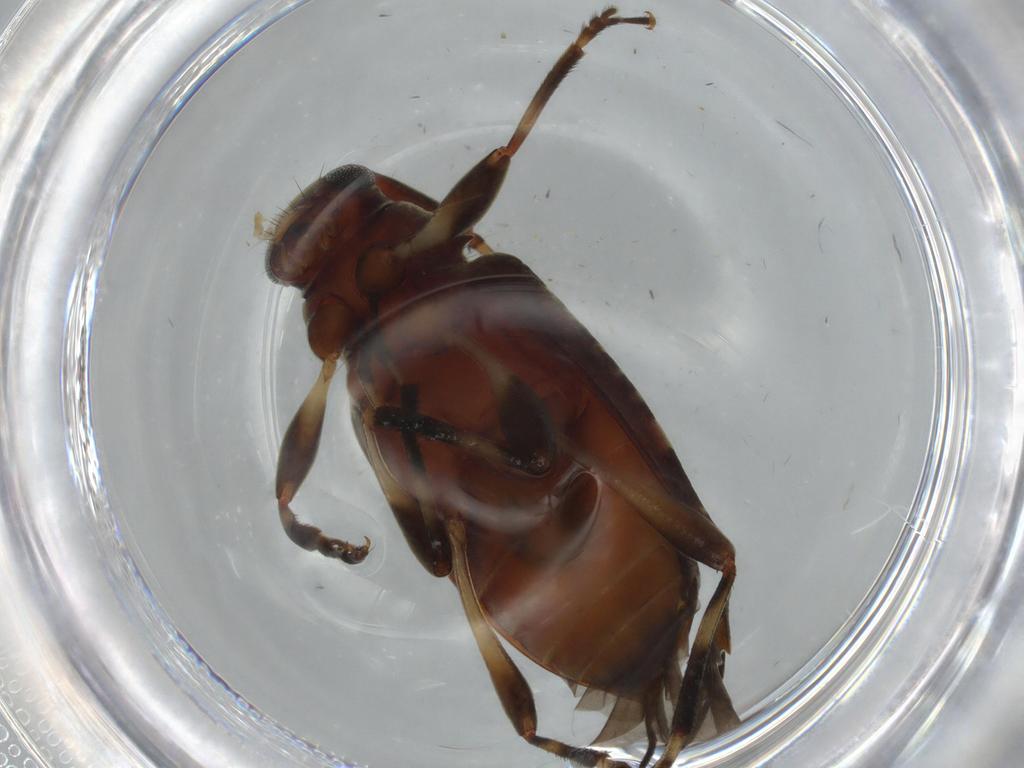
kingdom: Animalia
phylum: Arthropoda
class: Insecta
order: Coleoptera
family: Cerambycidae
